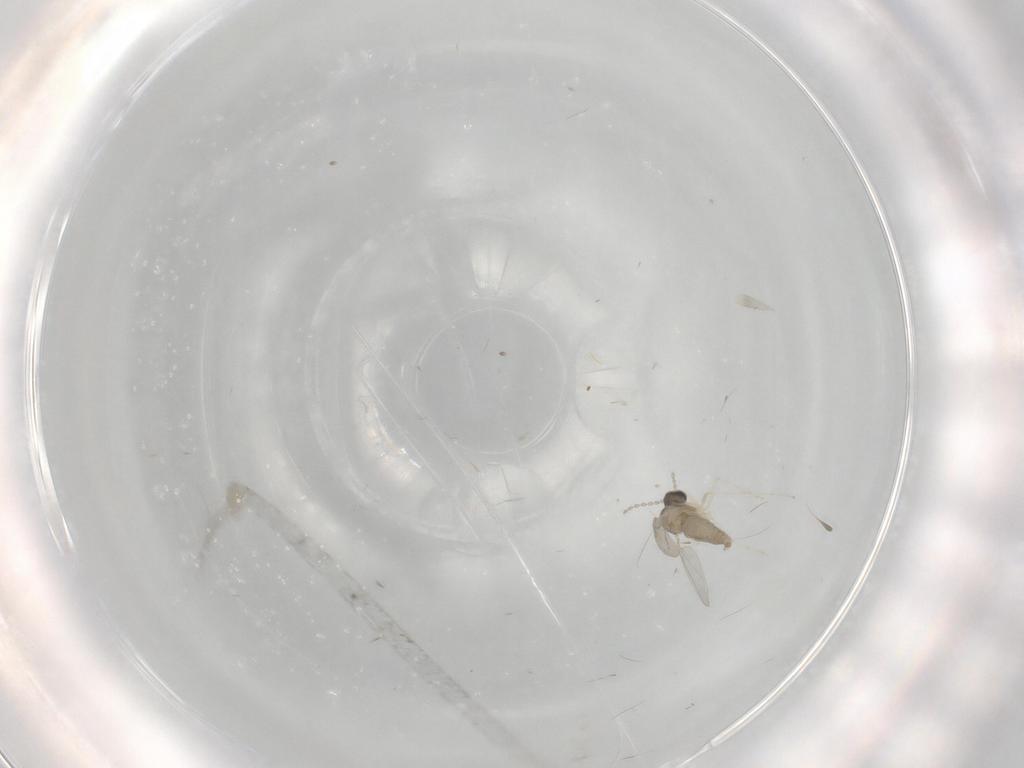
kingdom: Animalia
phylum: Arthropoda
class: Insecta
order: Diptera
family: Cecidomyiidae
